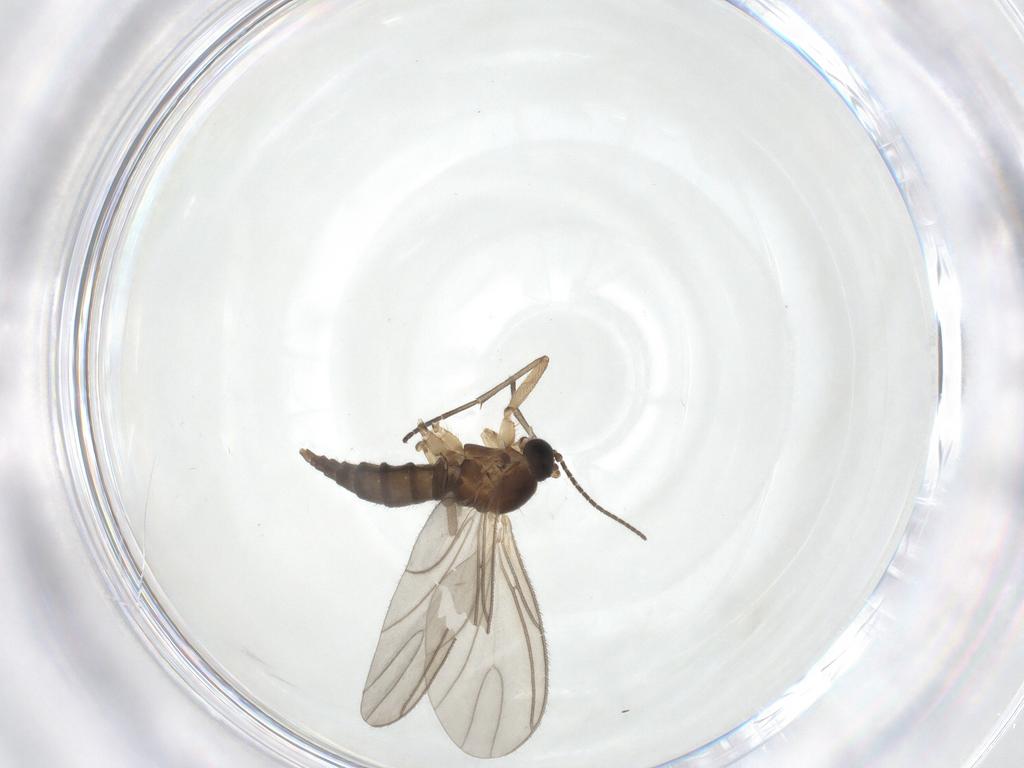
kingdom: Animalia
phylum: Arthropoda
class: Insecta
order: Diptera
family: Sciaridae
